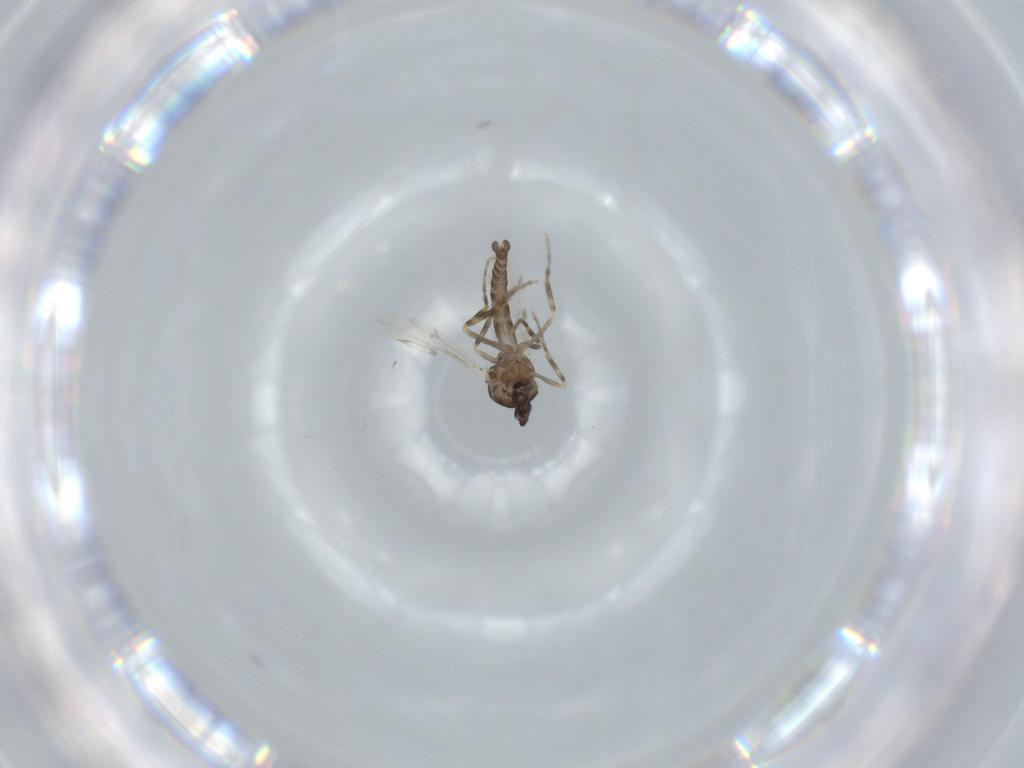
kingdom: Animalia
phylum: Arthropoda
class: Insecta
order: Diptera
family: Ceratopogonidae
